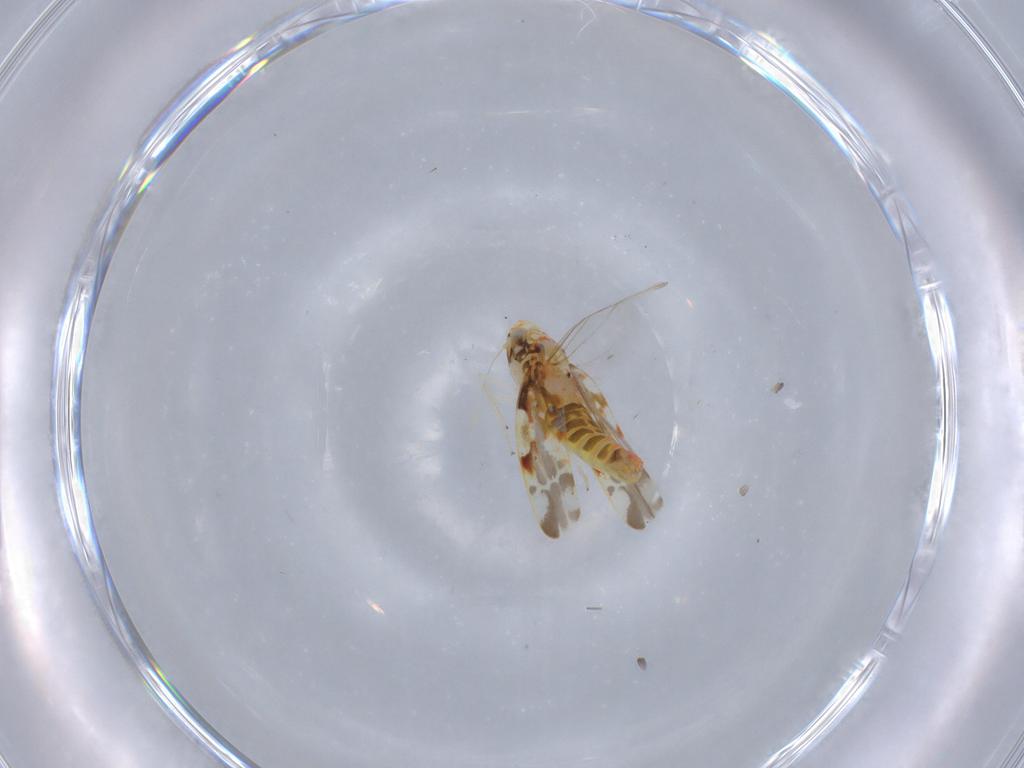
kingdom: Animalia
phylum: Arthropoda
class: Insecta
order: Hemiptera
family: Cicadellidae
